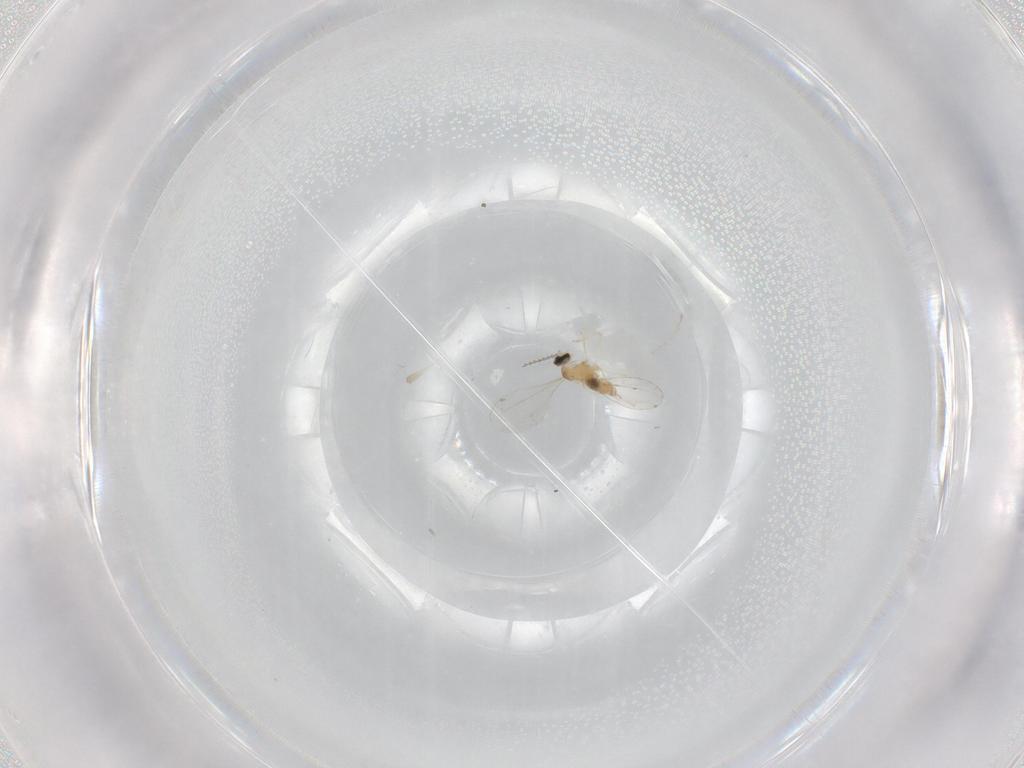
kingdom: Animalia
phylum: Arthropoda
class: Insecta
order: Diptera
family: Cecidomyiidae
